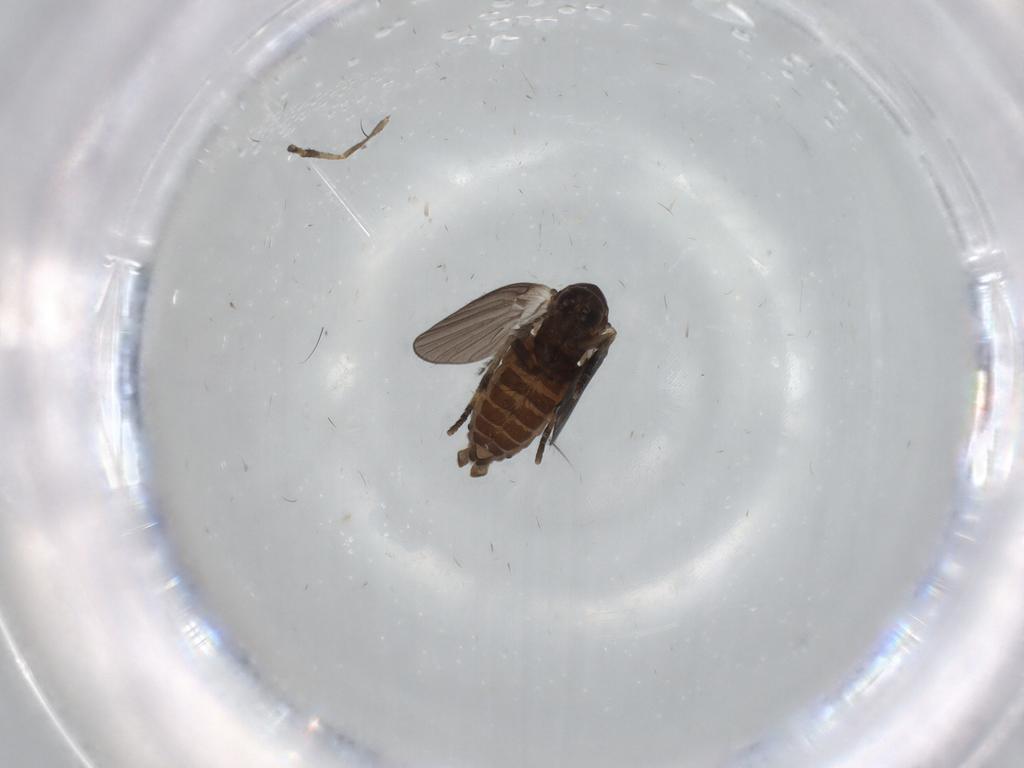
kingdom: Animalia
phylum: Arthropoda
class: Insecta
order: Diptera
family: Psychodidae
